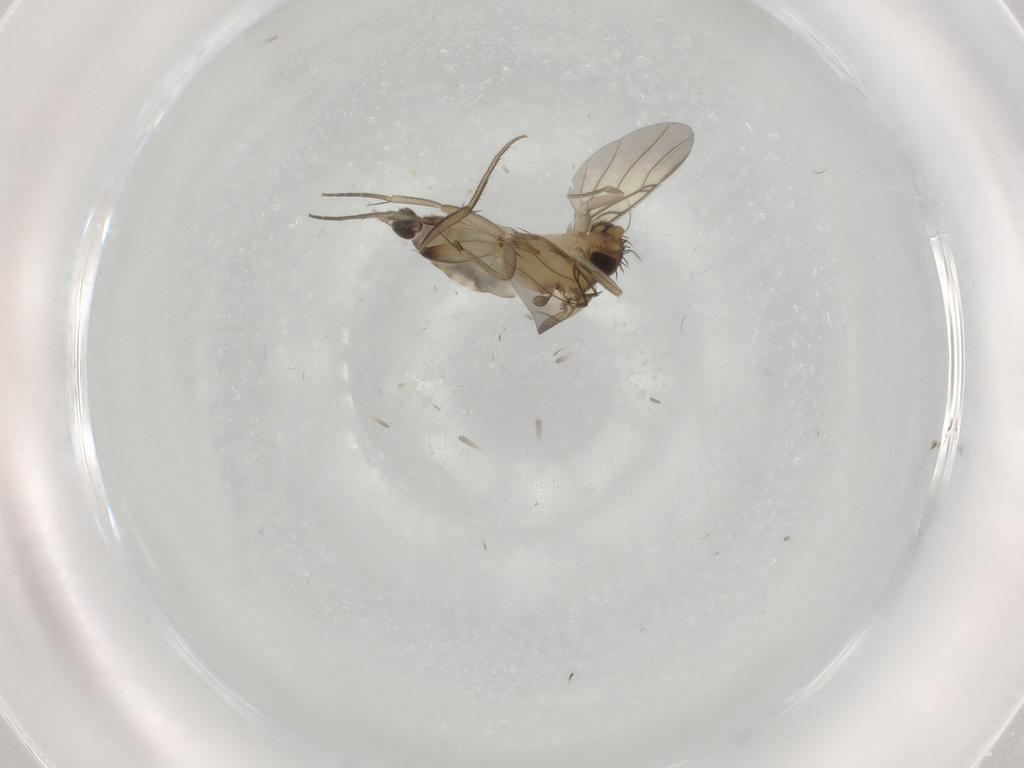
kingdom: Animalia
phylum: Arthropoda
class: Insecta
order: Diptera
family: Phoridae
